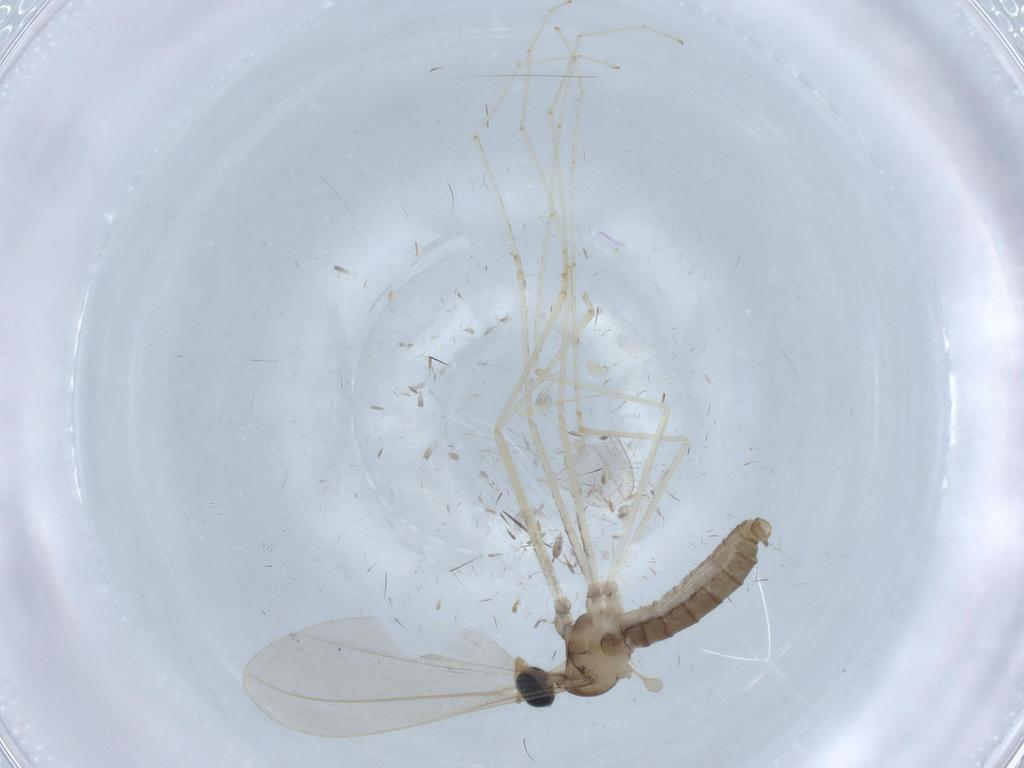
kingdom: Animalia
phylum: Arthropoda
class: Insecta
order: Diptera
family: Cecidomyiidae
